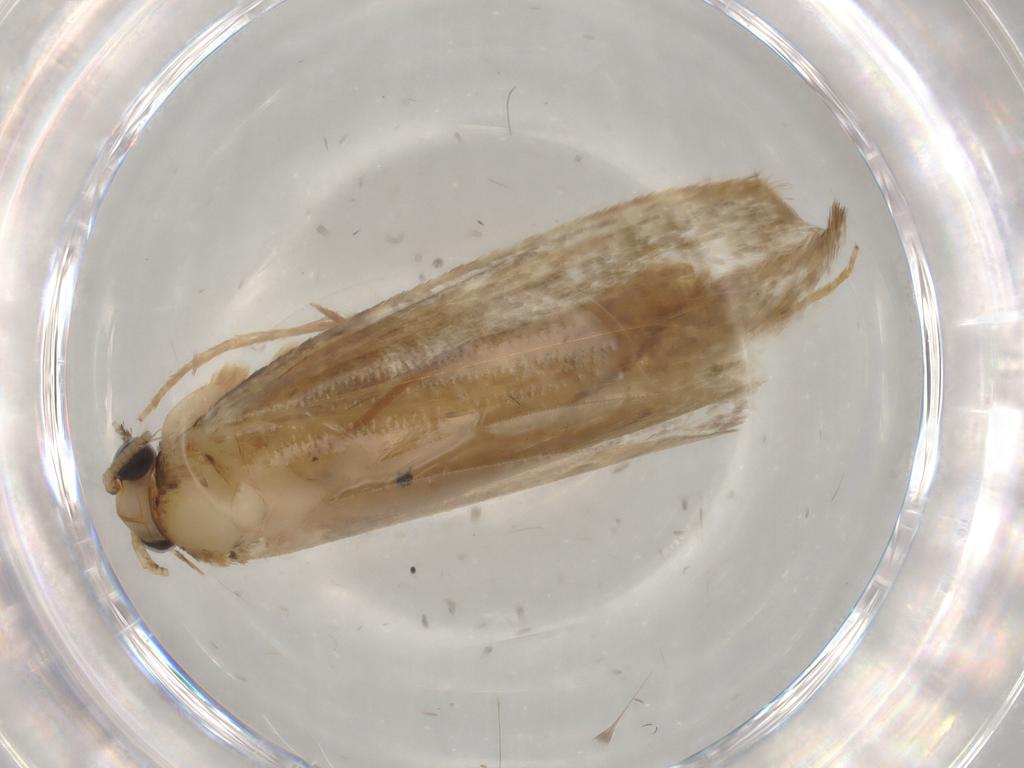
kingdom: Animalia
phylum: Arthropoda
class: Insecta
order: Lepidoptera
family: Tineidae
